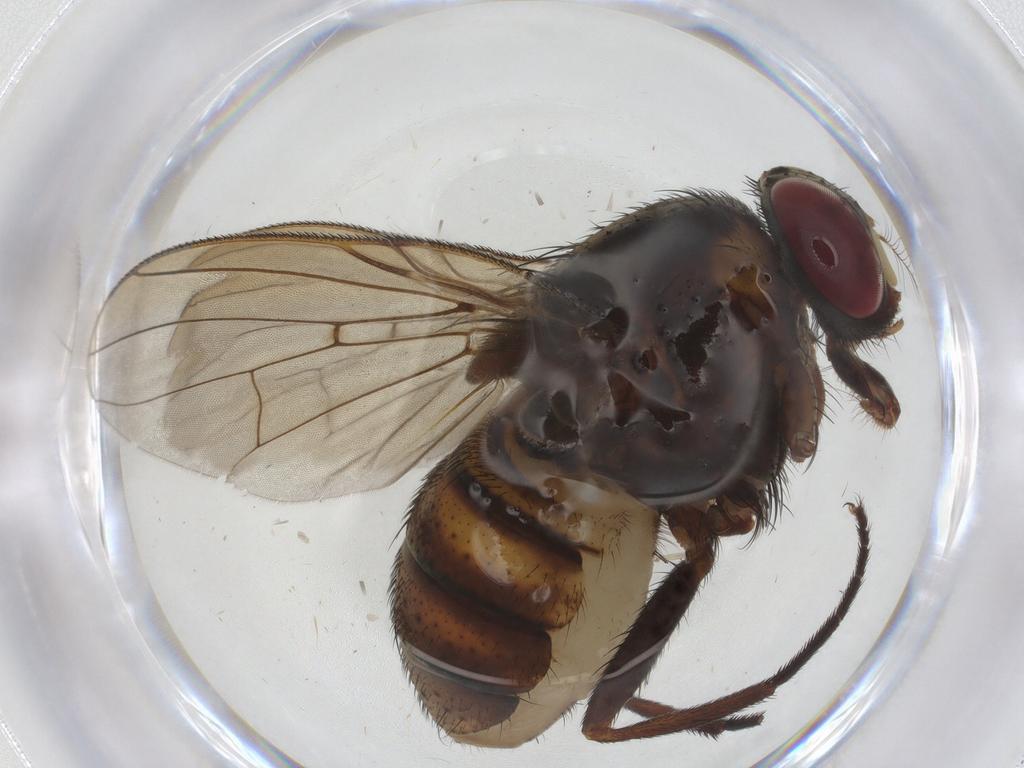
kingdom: Animalia
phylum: Arthropoda
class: Insecta
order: Diptera
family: Muscidae
